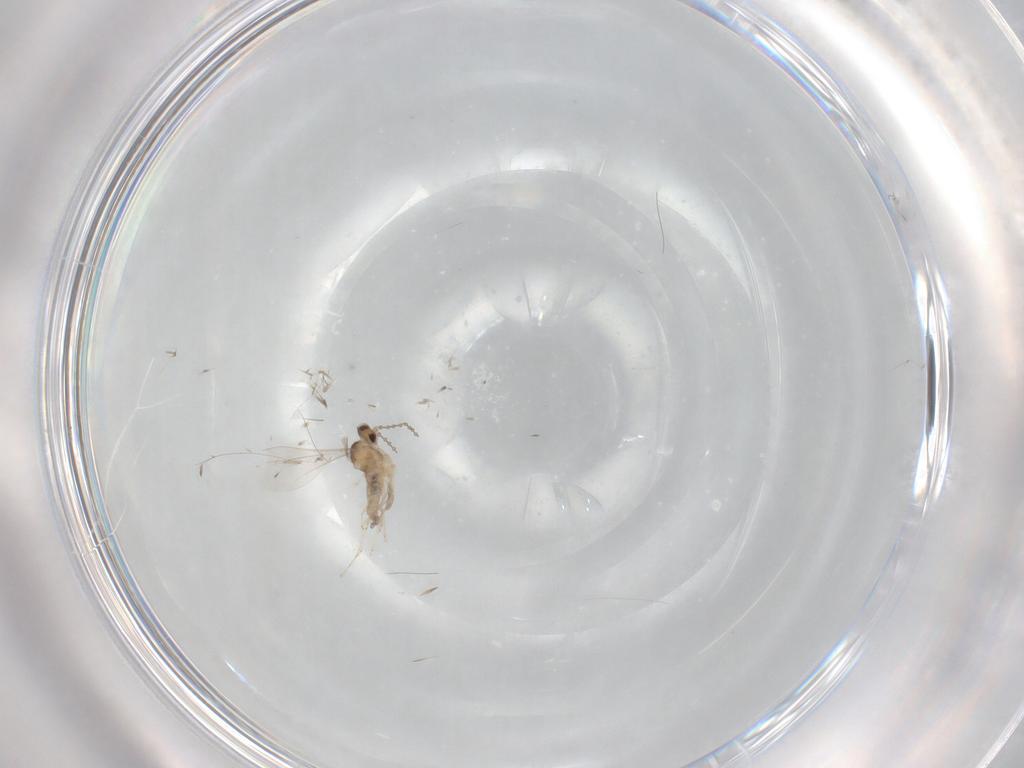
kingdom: Animalia
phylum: Arthropoda
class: Insecta
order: Diptera
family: Cecidomyiidae
